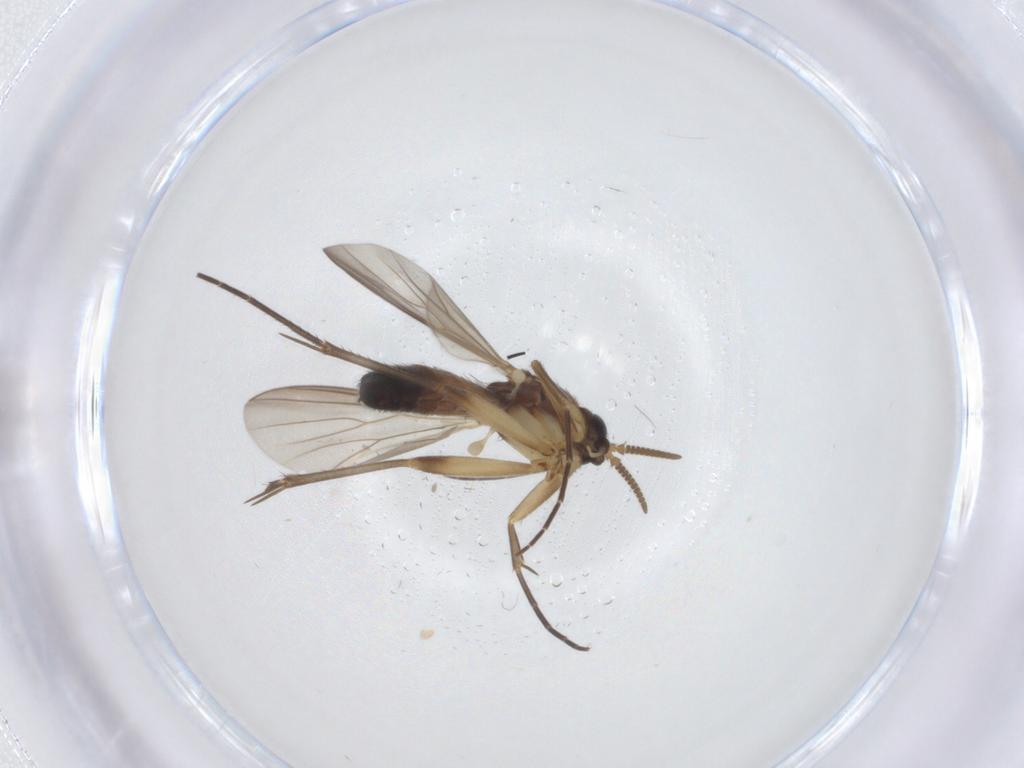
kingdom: Animalia
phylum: Arthropoda
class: Insecta
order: Diptera
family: Mycetophilidae
